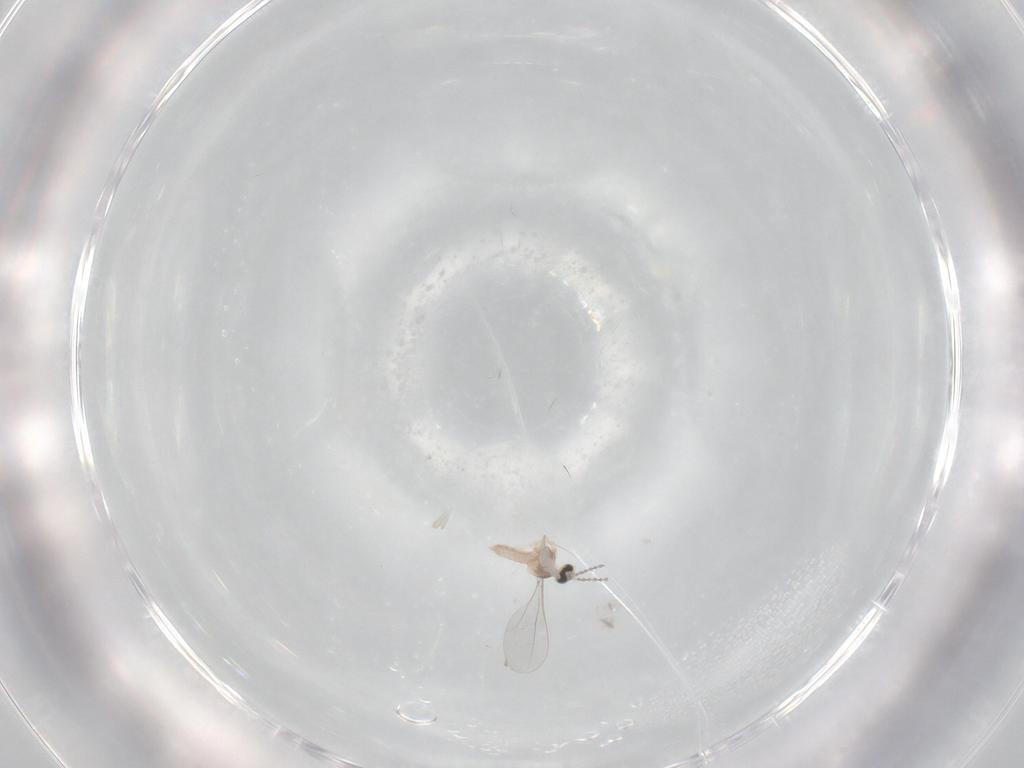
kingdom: Animalia
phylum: Arthropoda
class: Insecta
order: Diptera
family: Cecidomyiidae
